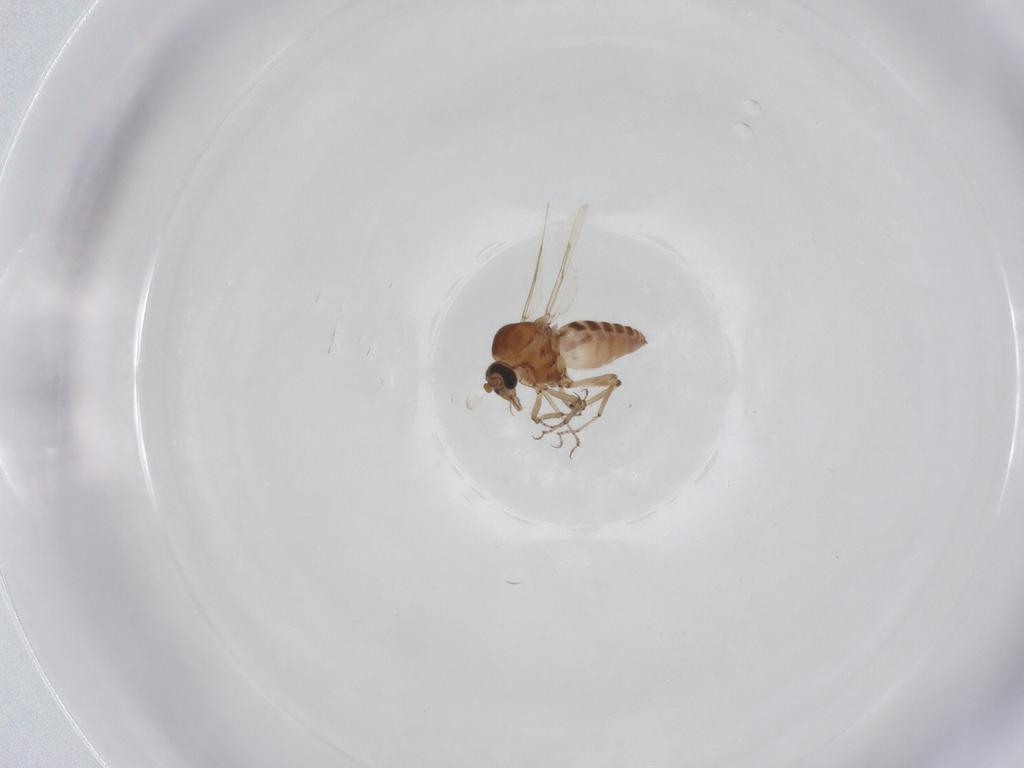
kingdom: Animalia
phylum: Arthropoda
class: Insecta
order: Diptera
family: Ceratopogonidae
